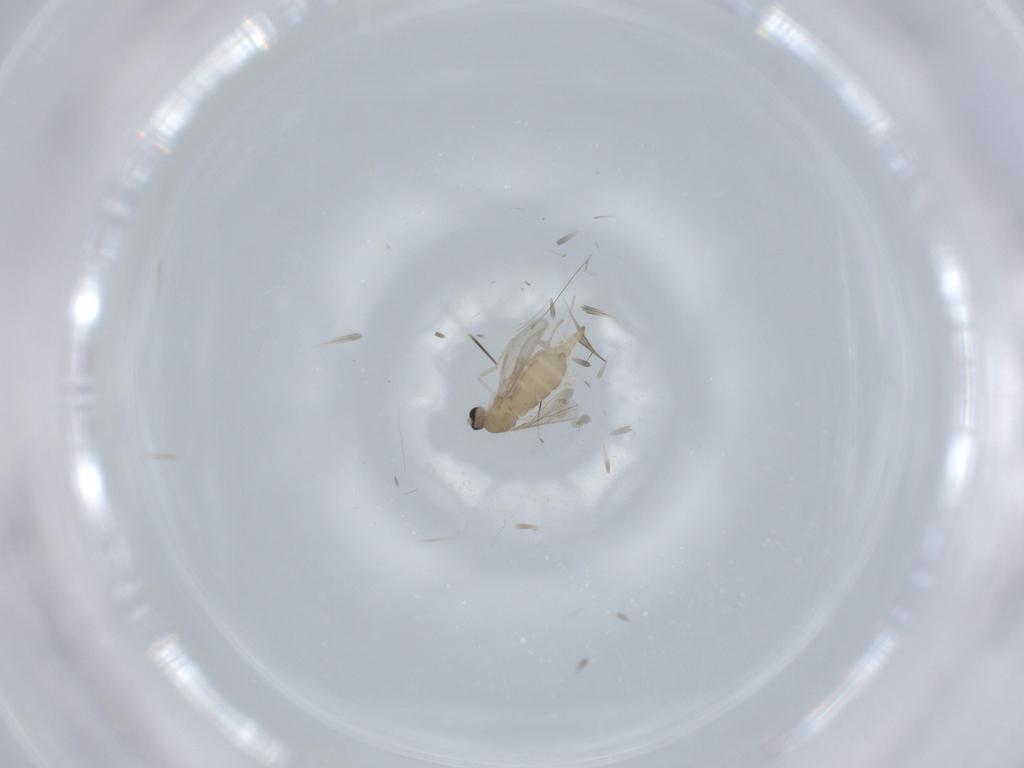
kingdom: Animalia
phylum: Arthropoda
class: Insecta
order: Diptera
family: Cecidomyiidae
